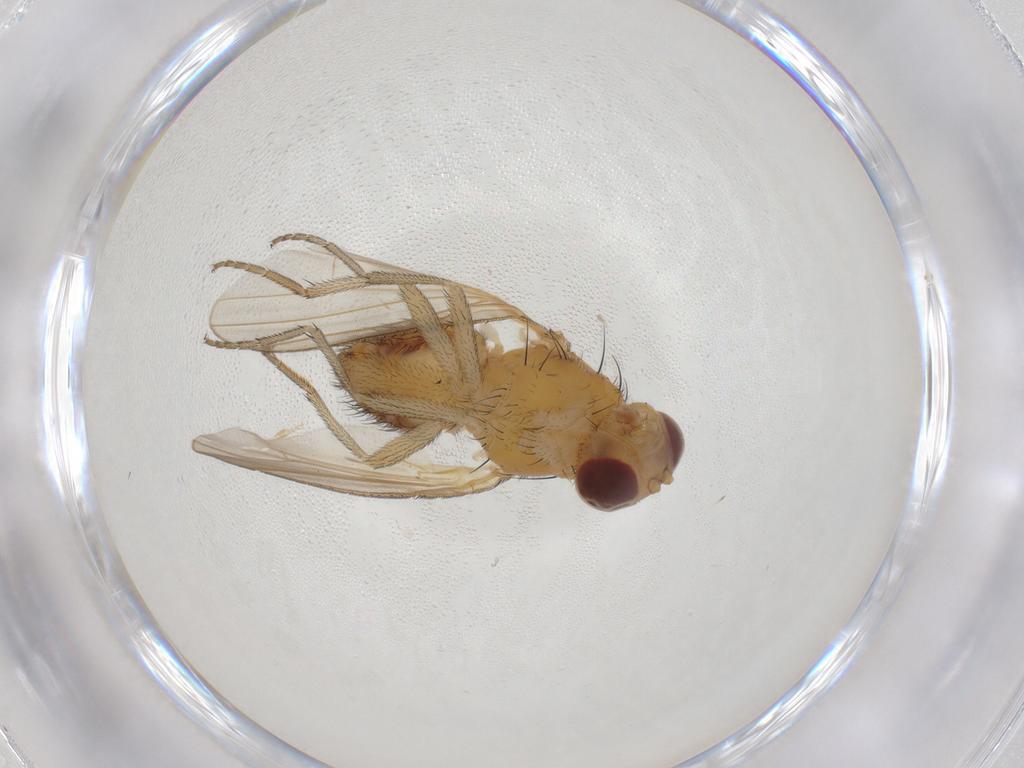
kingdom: Animalia
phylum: Arthropoda
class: Insecta
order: Diptera
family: Heleomyzidae
